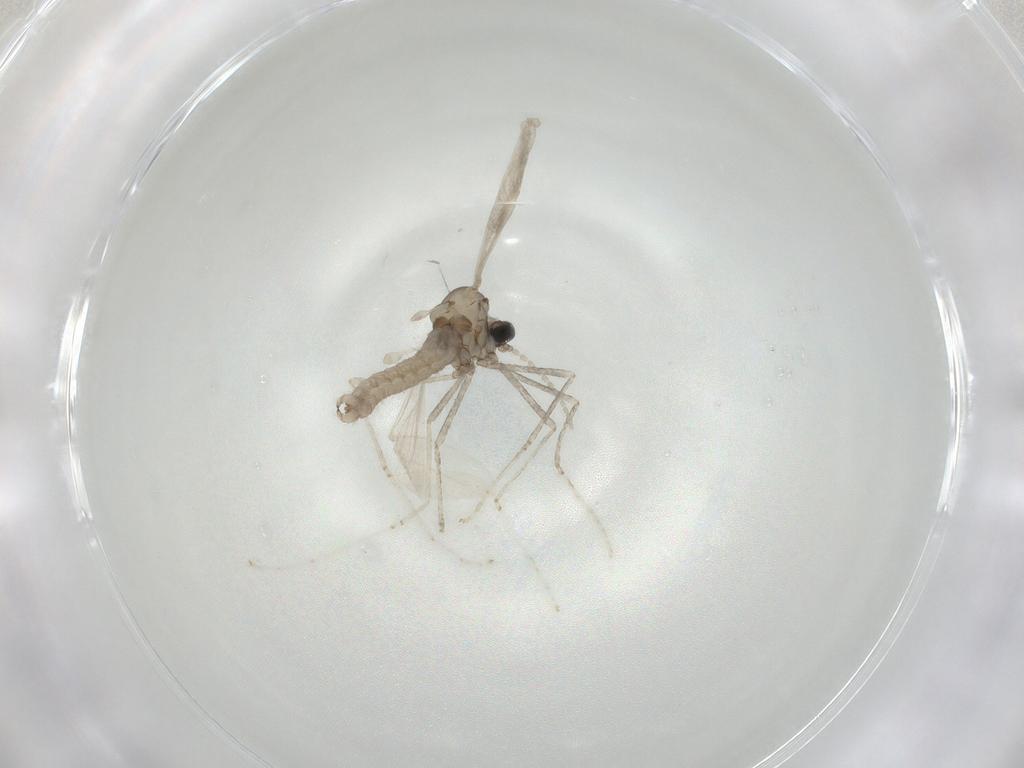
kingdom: Animalia
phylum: Arthropoda
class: Insecta
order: Diptera
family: Cecidomyiidae
